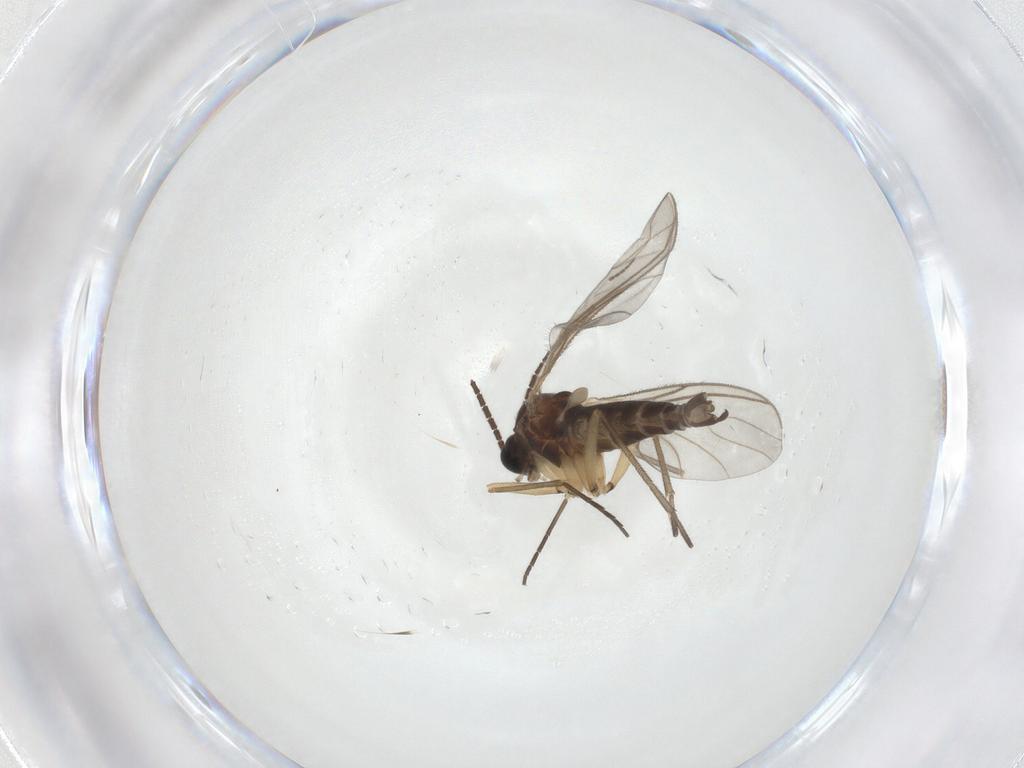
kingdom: Animalia
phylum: Arthropoda
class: Insecta
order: Diptera
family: Sciaridae
